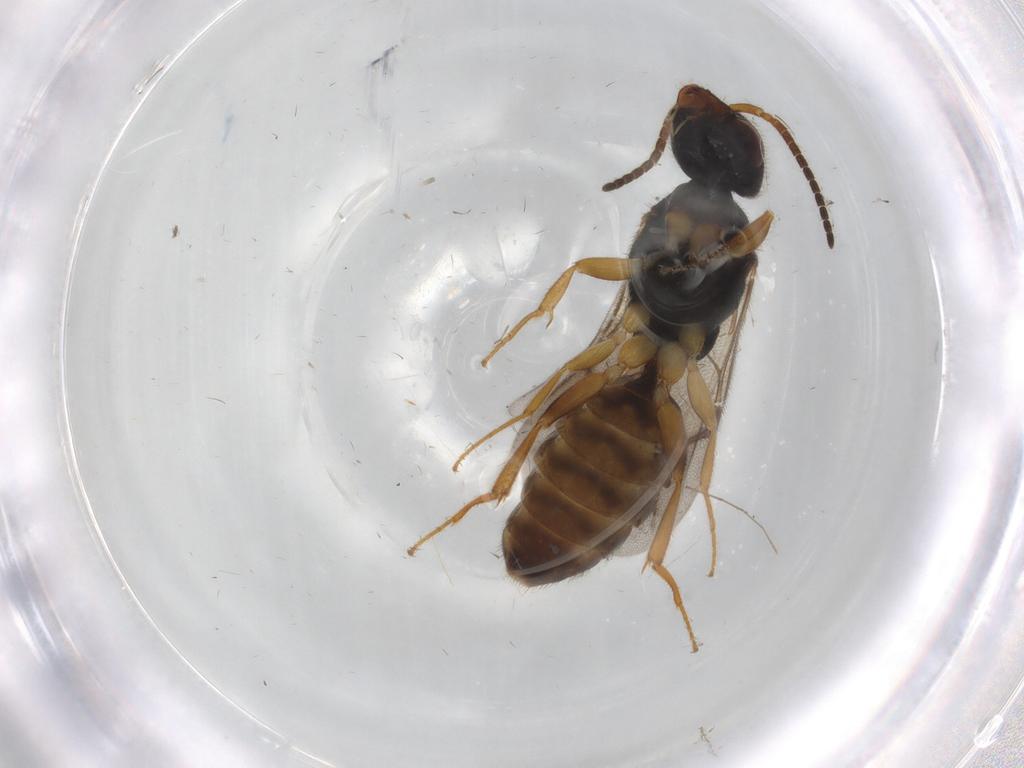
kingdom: Animalia
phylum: Arthropoda
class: Insecta
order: Hymenoptera
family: Bethylidae
